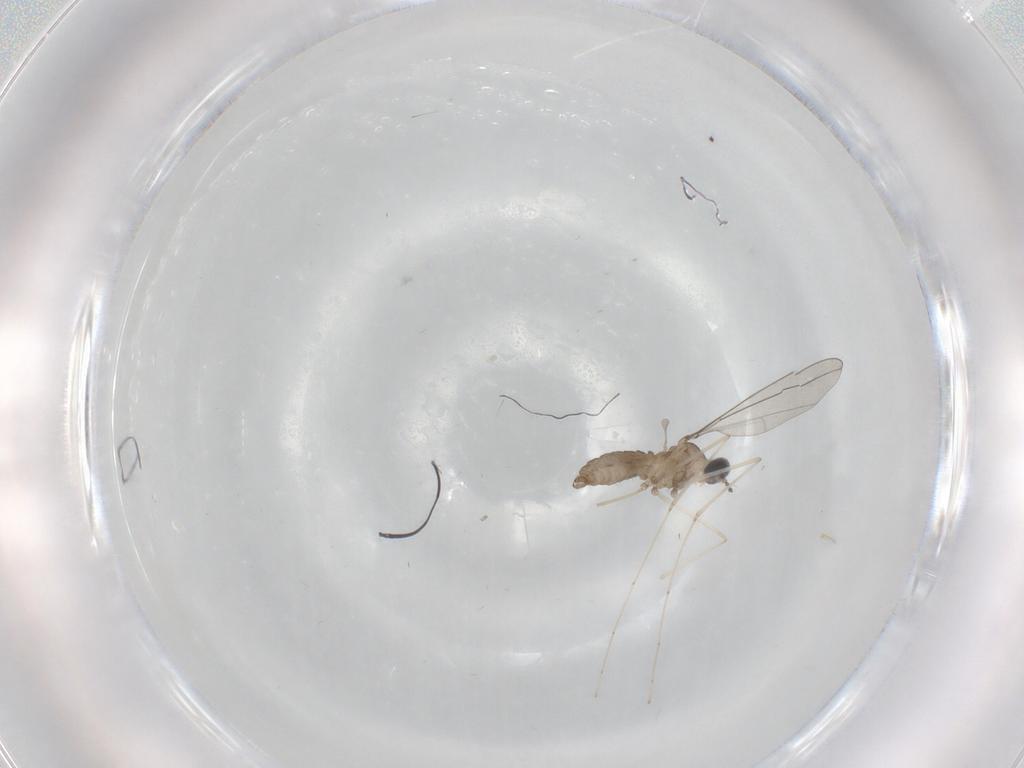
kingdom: Animalia
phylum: Arthropoda
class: Insecta
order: Diptera
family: Cecidomyiidae
